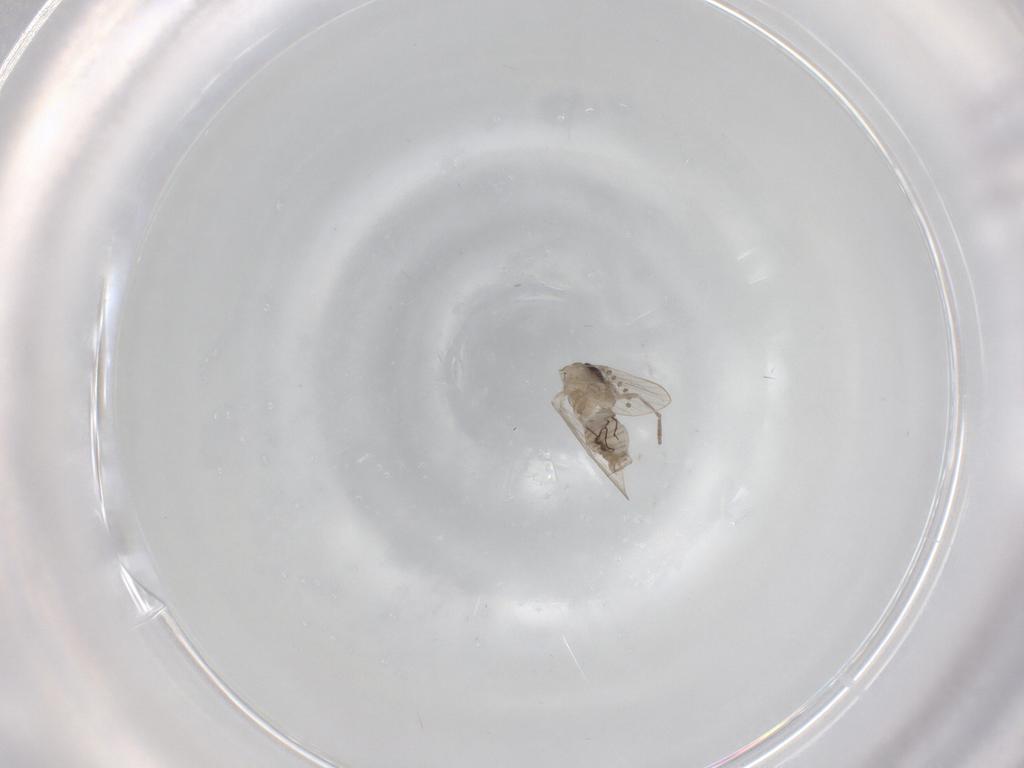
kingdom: Animalia
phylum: Arthropoda
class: Insecta
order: Diptera
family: Psychodidae
